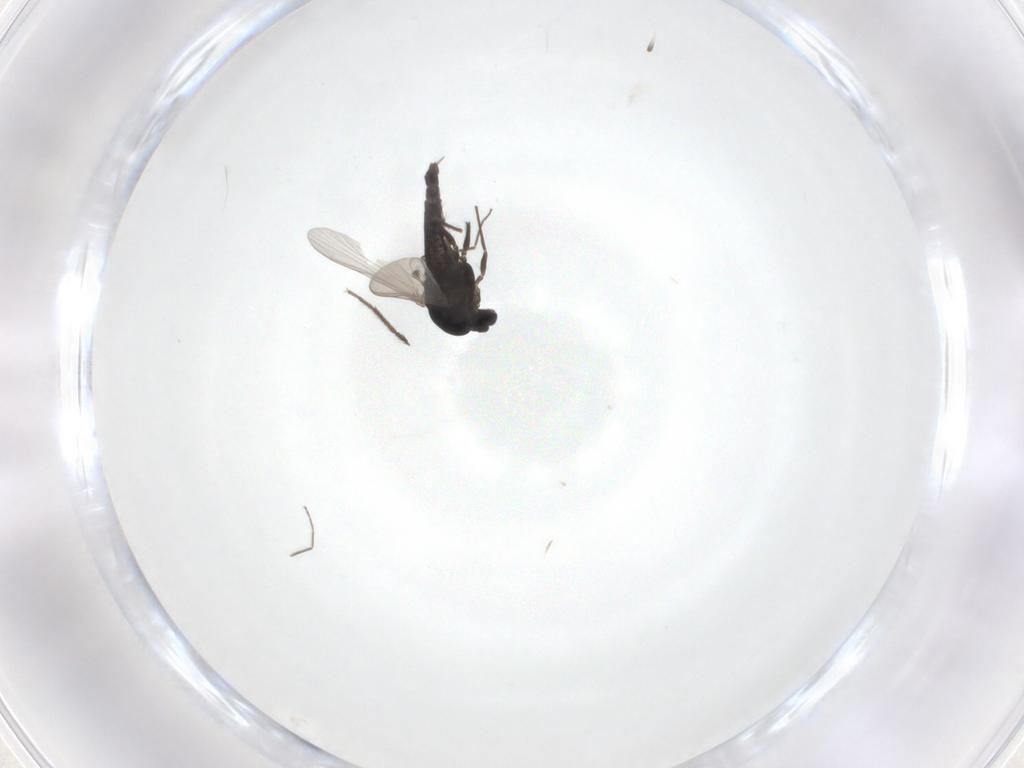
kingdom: Animalia
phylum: Arthropoda
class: Insecta
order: Diptera
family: Chironomidae
